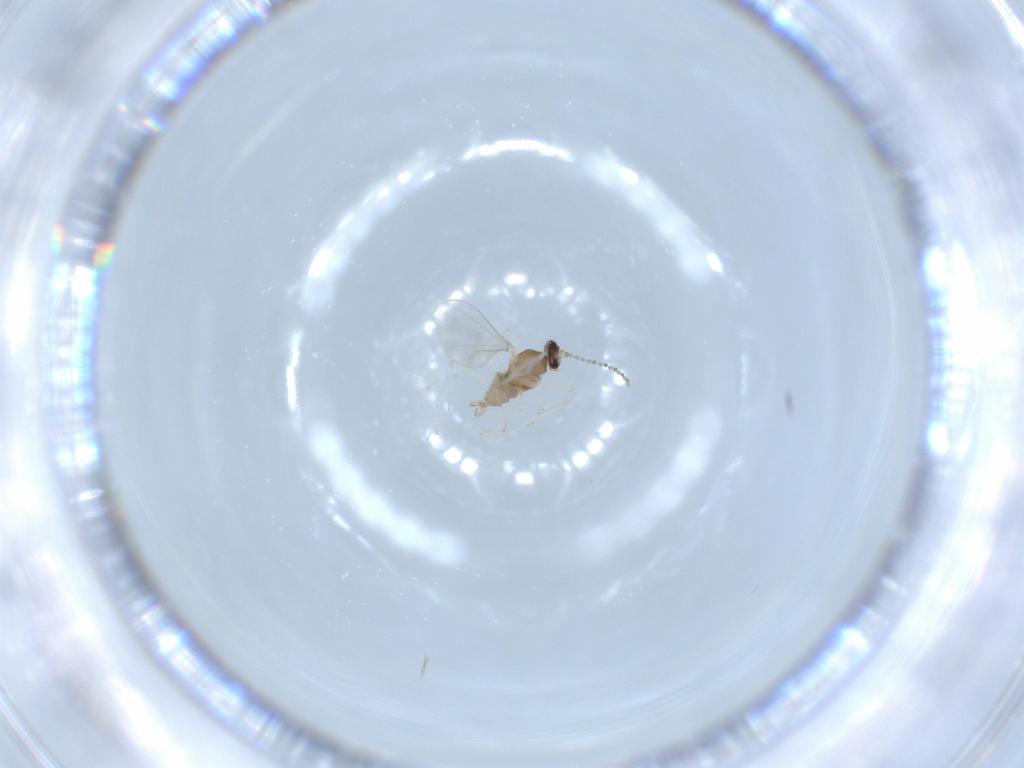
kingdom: Animalia
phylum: Arthropoda
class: Insecta
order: Diptera
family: Cecidomyiidae
